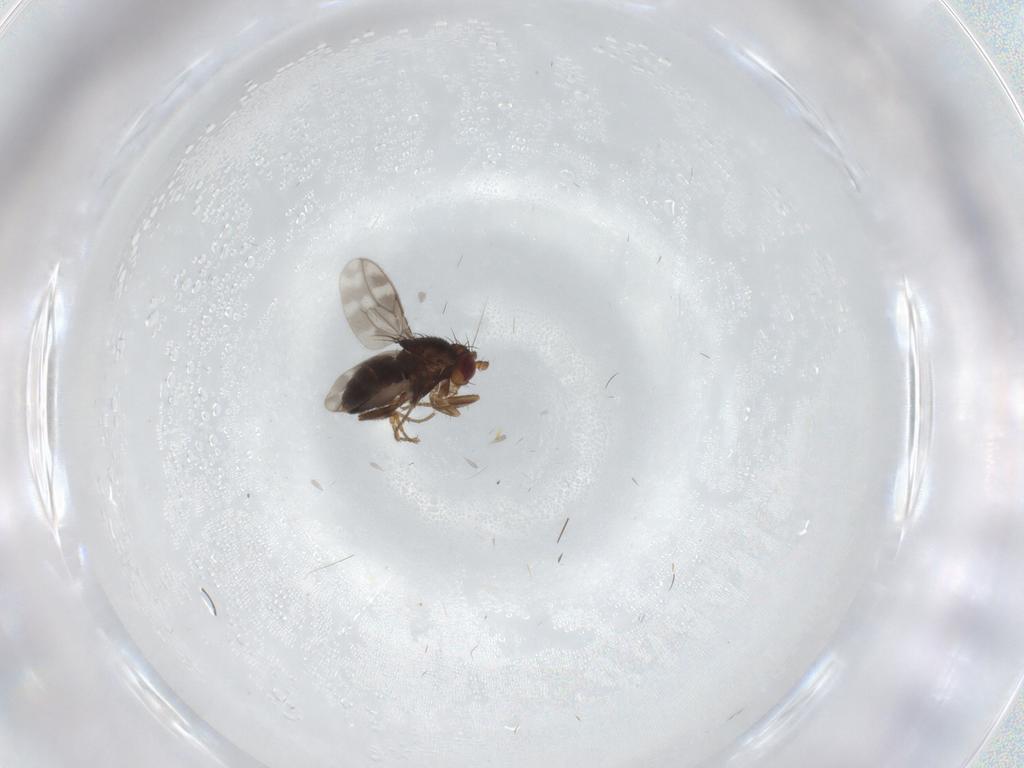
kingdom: Animalia
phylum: Arthropoda
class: Insecta
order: Diptera
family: Sphaeroceridae
